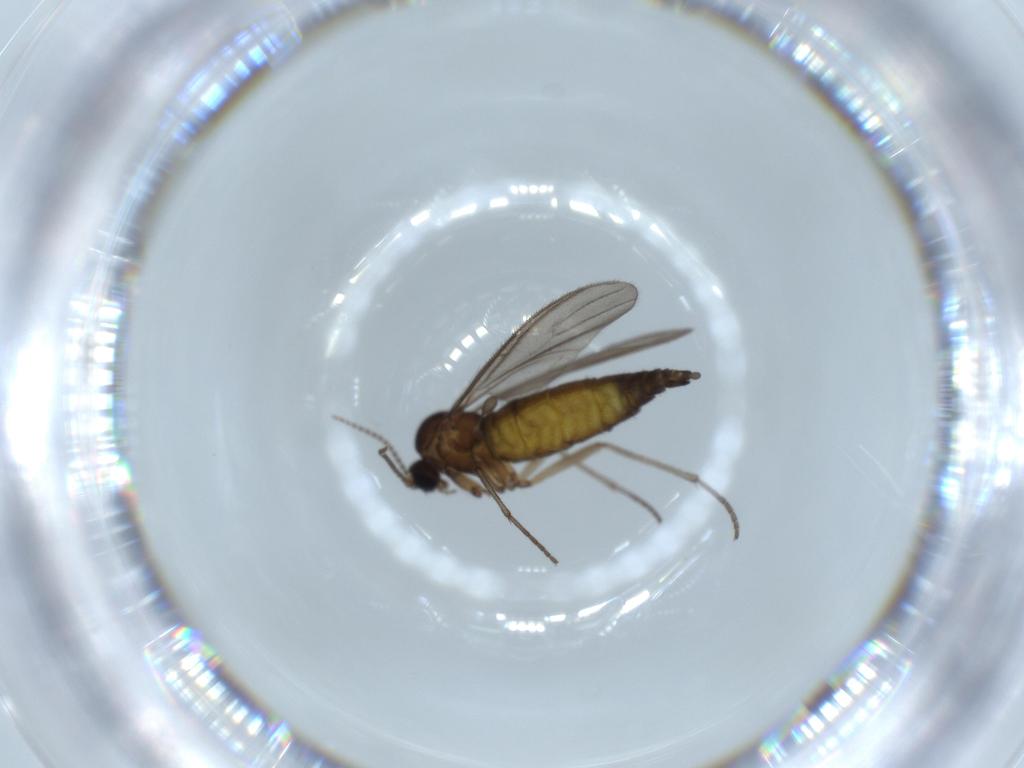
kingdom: Animalia
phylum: Arthropoda
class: Insecta
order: Diptera
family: Sciaridae
